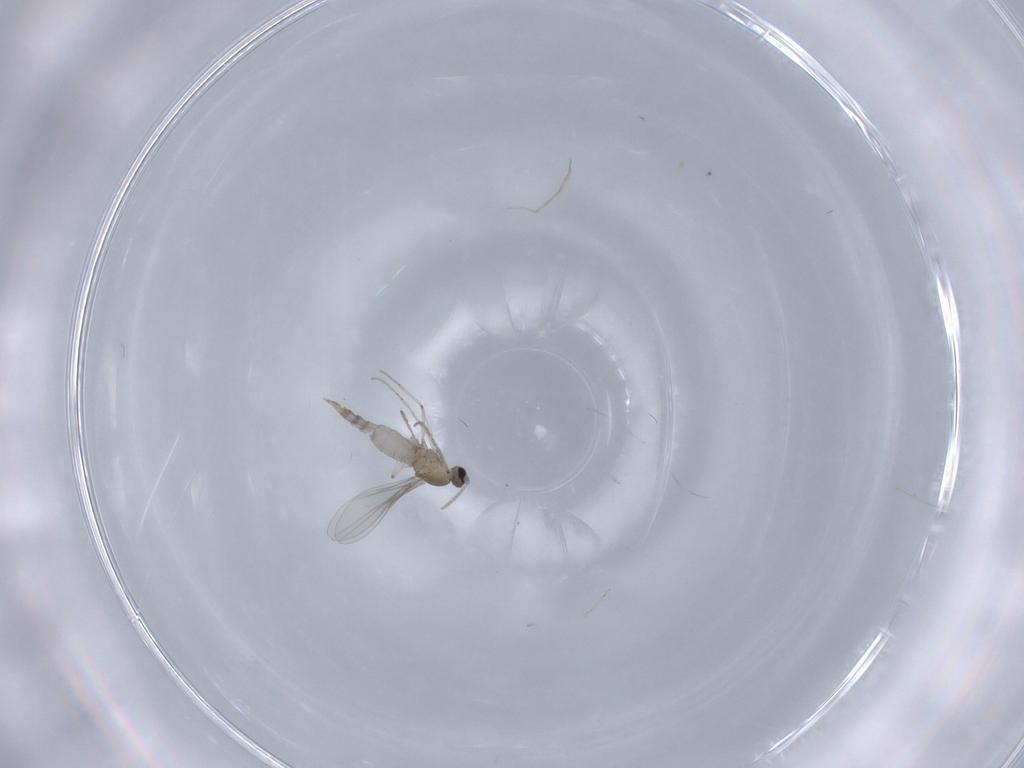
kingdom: Animalia
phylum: Arthropoda
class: Insecta
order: Diptera
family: Cecidomyiidae
